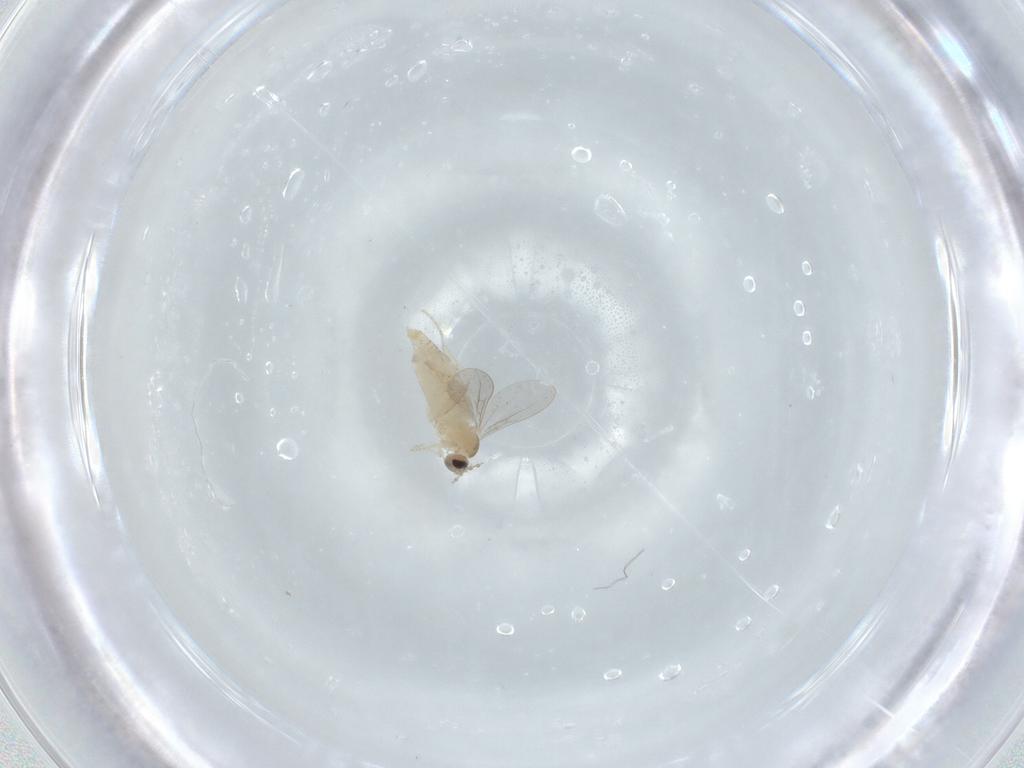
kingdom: Animalia
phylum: Arthropoda
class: Insecta
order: Diptera
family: Cecidomyiidae
